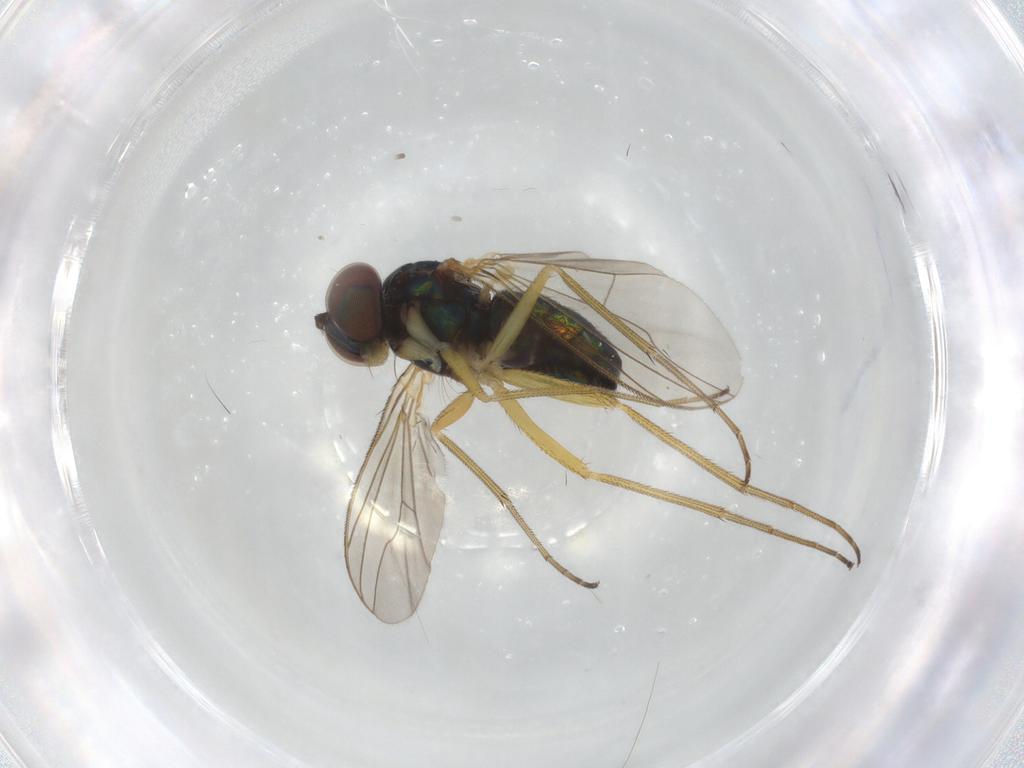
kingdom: Animalia
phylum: Arthropoda
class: Insecta
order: Diptera
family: Dolichopodidae
